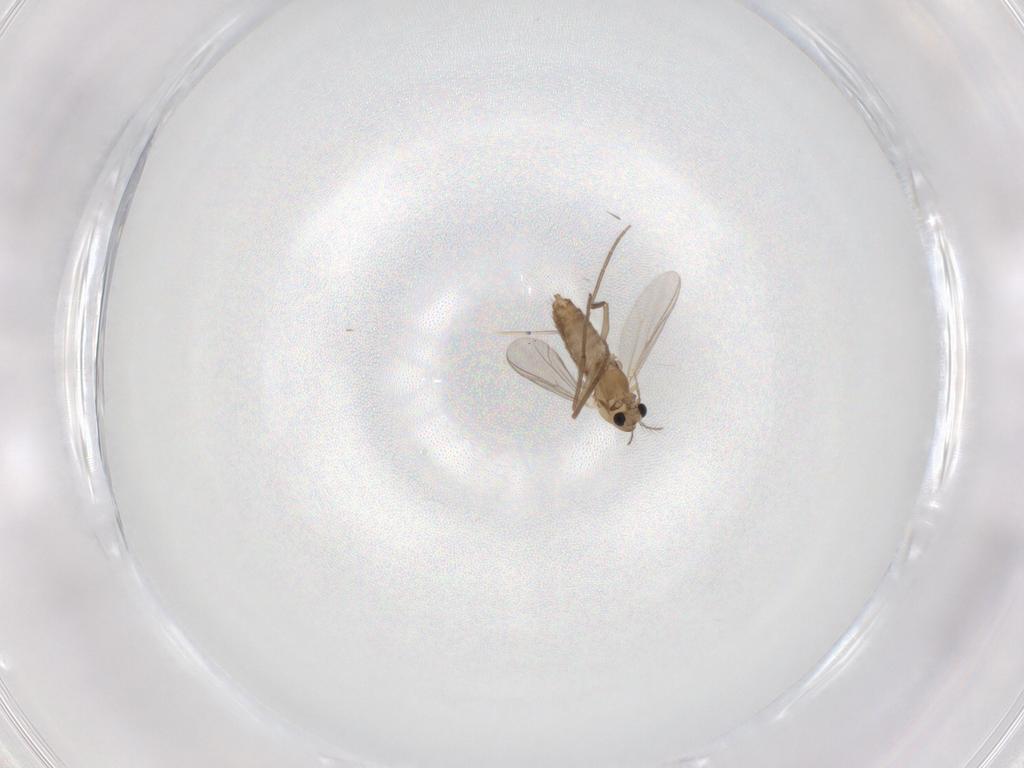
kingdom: Animalia
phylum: Arthropoda
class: Insecta
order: Diptera
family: Chironomidae
